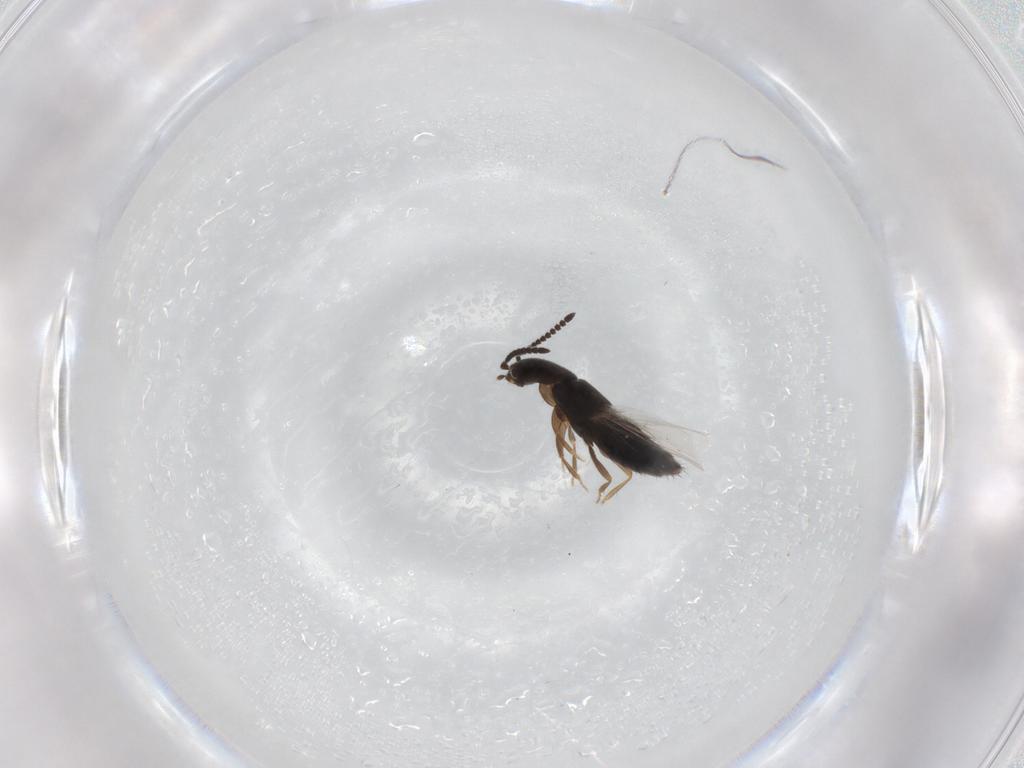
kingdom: Animalia
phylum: Arthropoda
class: Insecta
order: Coleoptera
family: Staphylinidae
